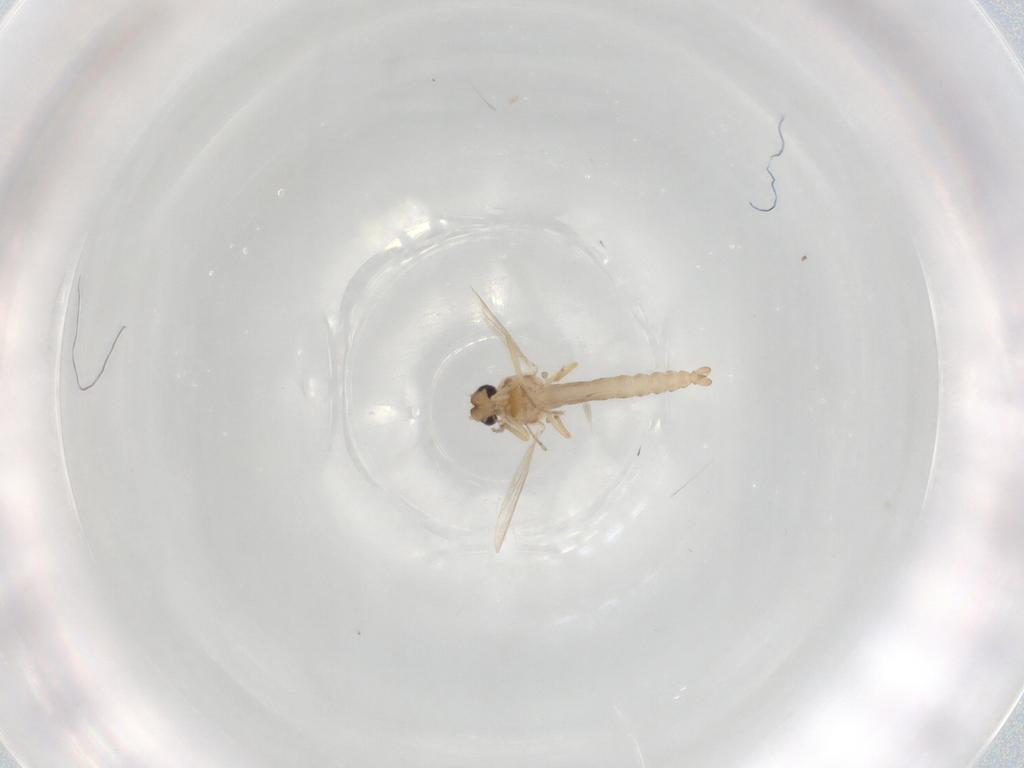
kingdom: Animalia
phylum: Arthropoda
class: Insecta
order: Diptera
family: Ceratopogonidae
